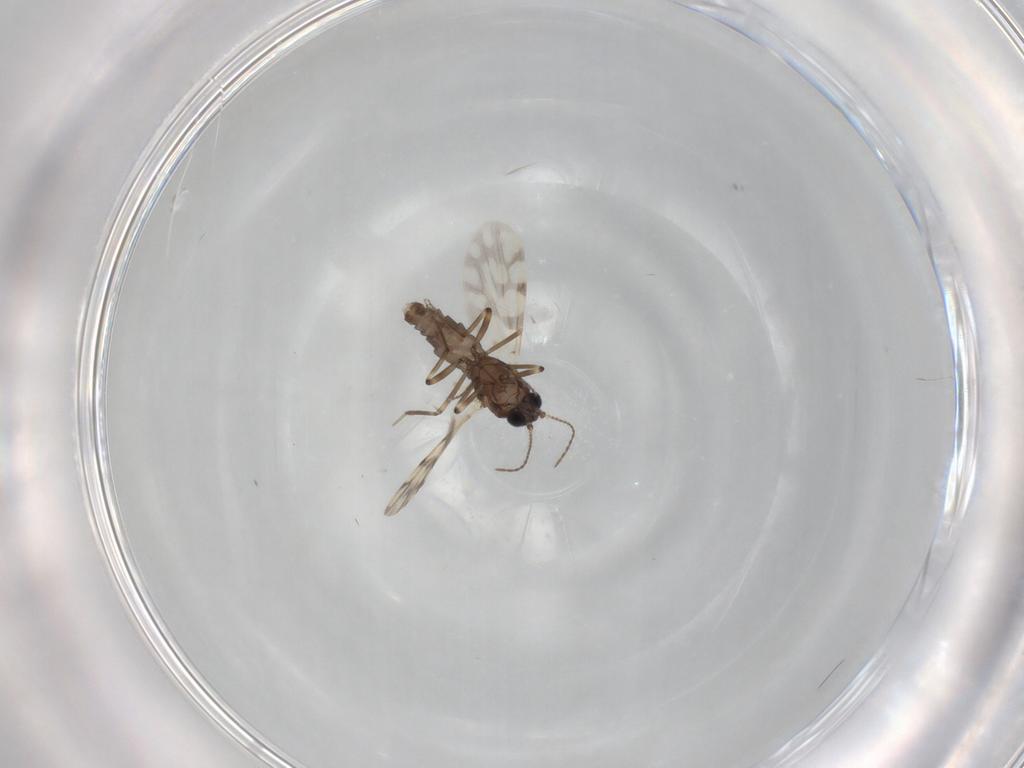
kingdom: Animalia
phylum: Arthropoda
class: Insecta
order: Diptera
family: Ceratopogonidae
